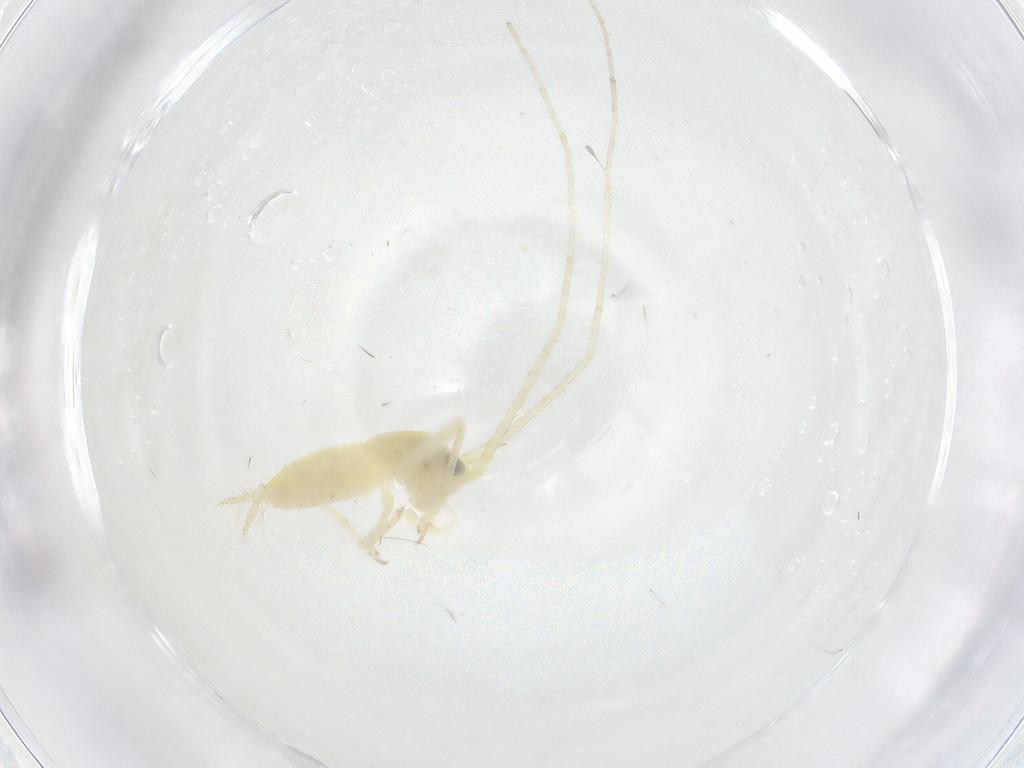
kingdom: Animalia
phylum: Arthropoda
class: Insecta
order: Orthoptera
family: Trigonidiidae
